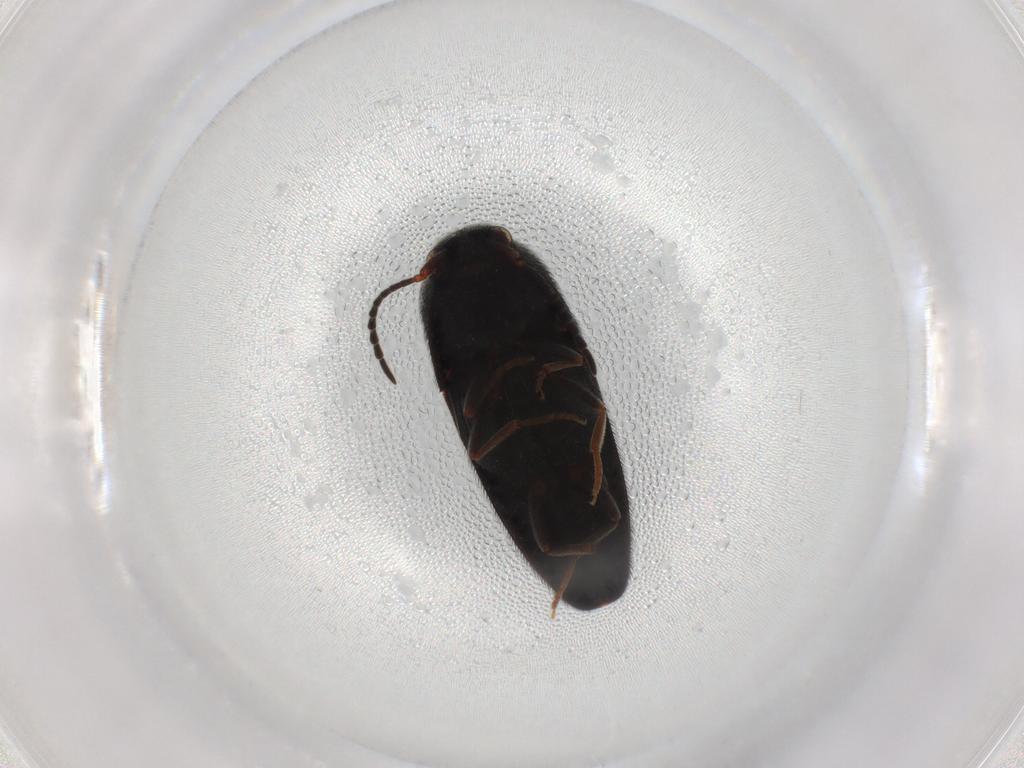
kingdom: Animalia
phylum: Arthropoda
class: Insecta
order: Coleoptera
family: Eucnemidae
